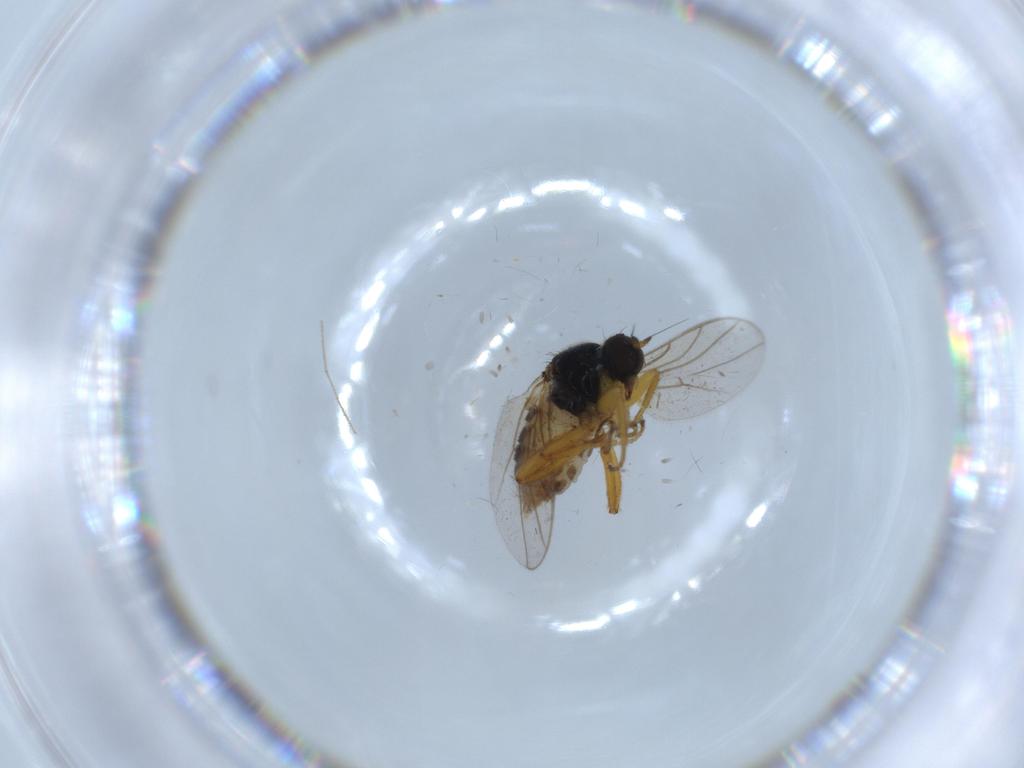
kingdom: Animalia
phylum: Arthropoda
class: Insecta
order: Diptera
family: Hybotidae
